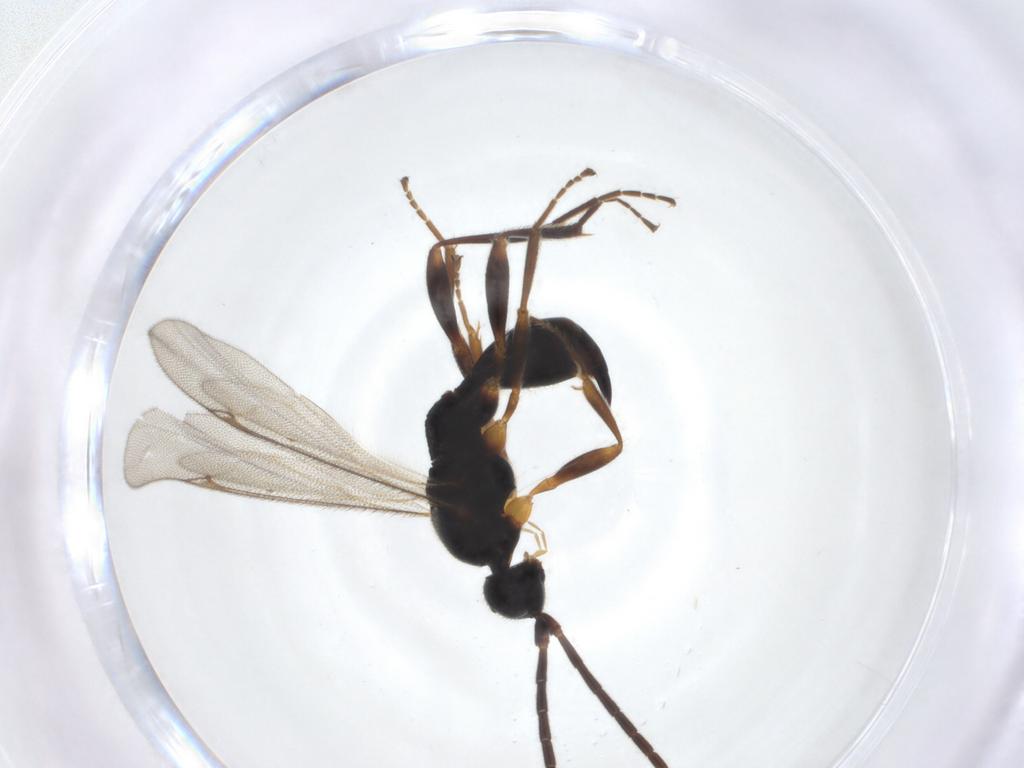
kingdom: Animalia
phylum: Arthropoda
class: Insecta
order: Hymenoptera
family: Proctotrupidae
